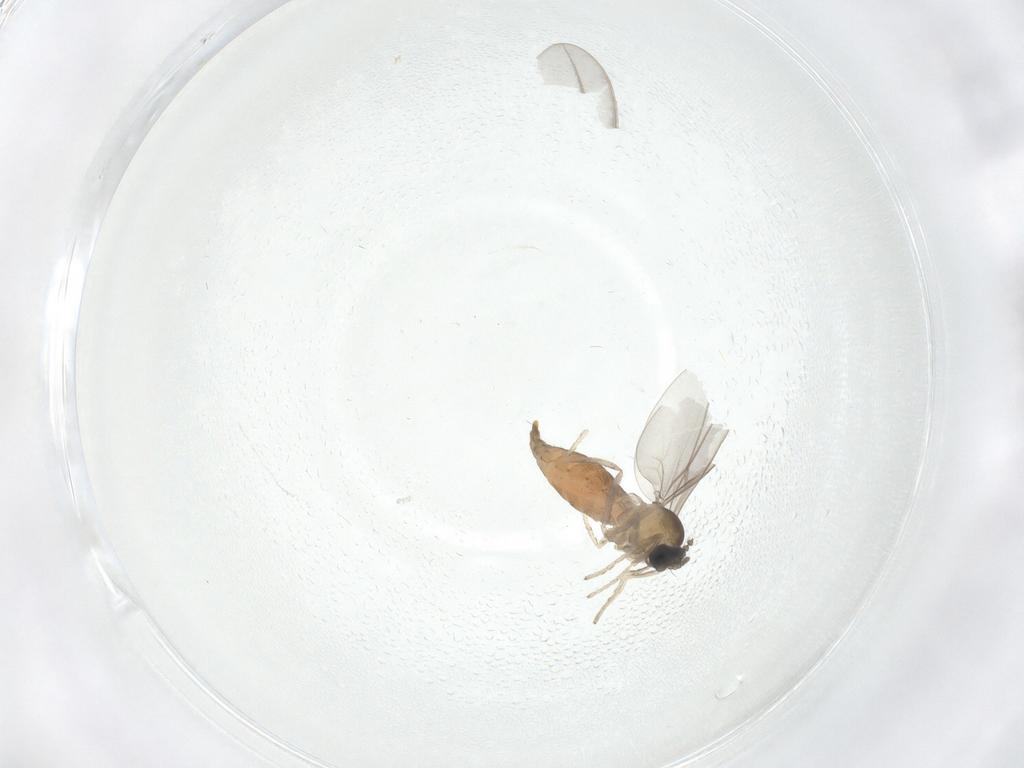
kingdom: Animalia
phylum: Arthropoda
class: Insecta
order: Diptera
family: Cecidomyiidae
